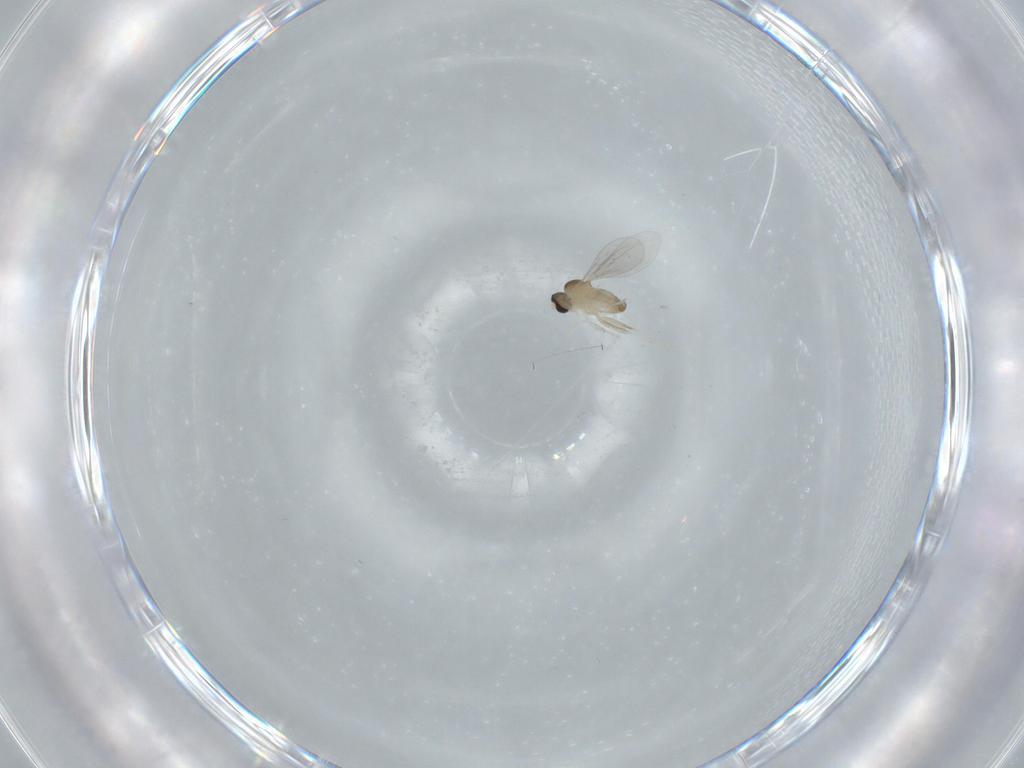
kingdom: Animalia
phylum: Arthropoda
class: Insecta
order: Diptera
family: Cecidomyiidae
